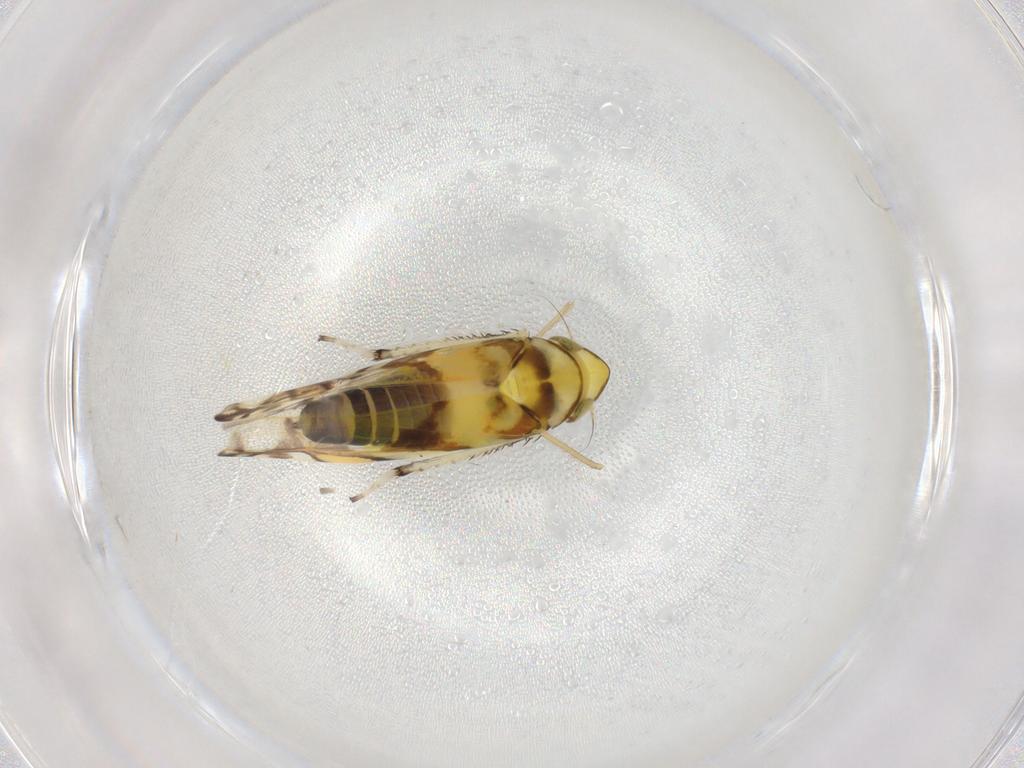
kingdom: Animalia
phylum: Arthropoda
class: Insecta
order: Hemiptera
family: Cicadellidae
